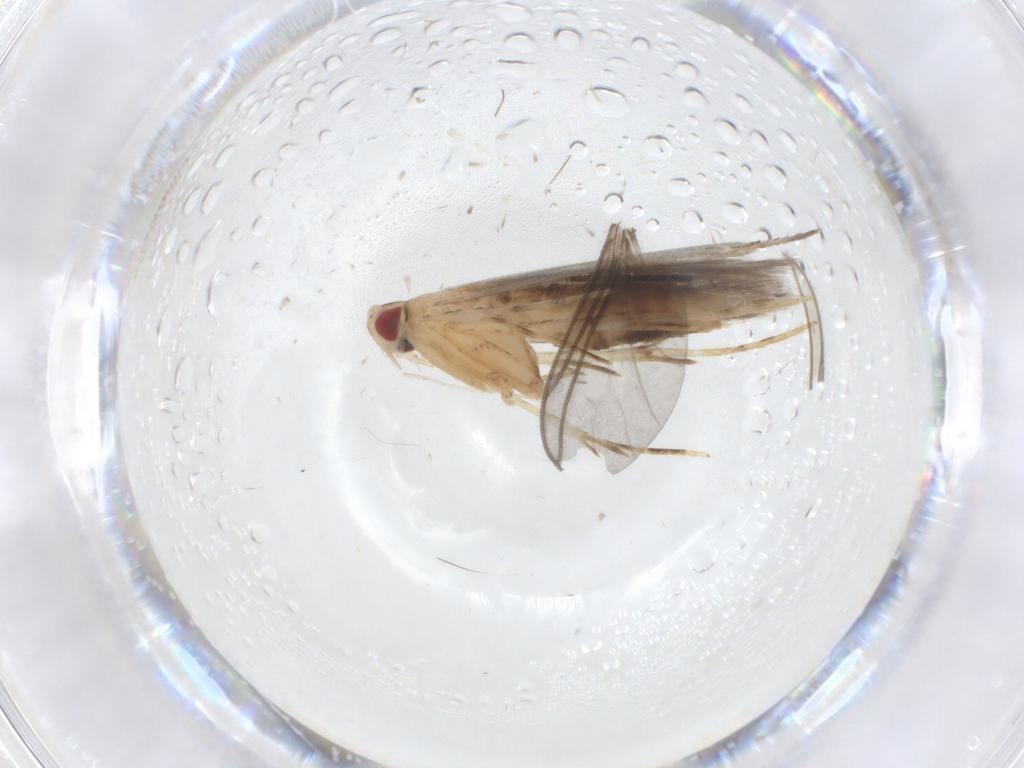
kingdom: Animalia
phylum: Arthropoda
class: Insecta
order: Lepidoptera
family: Cosmopterigidae
